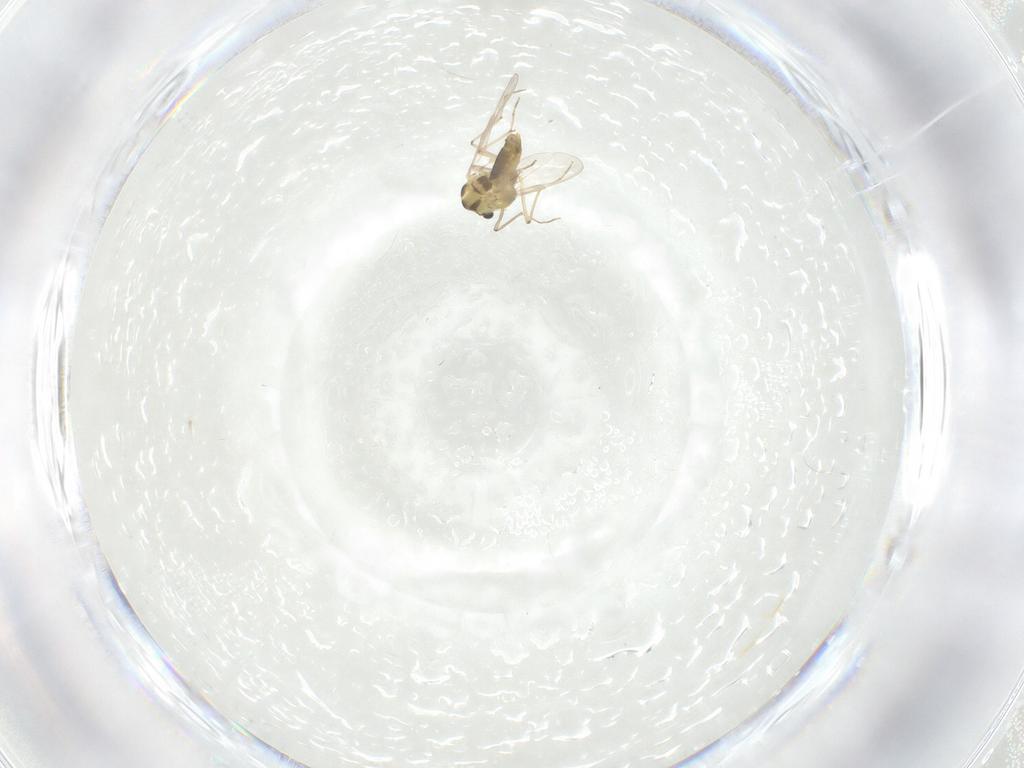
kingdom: Animalia
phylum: Arthropoda
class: Insecta
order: Diptera
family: Chironomidae
